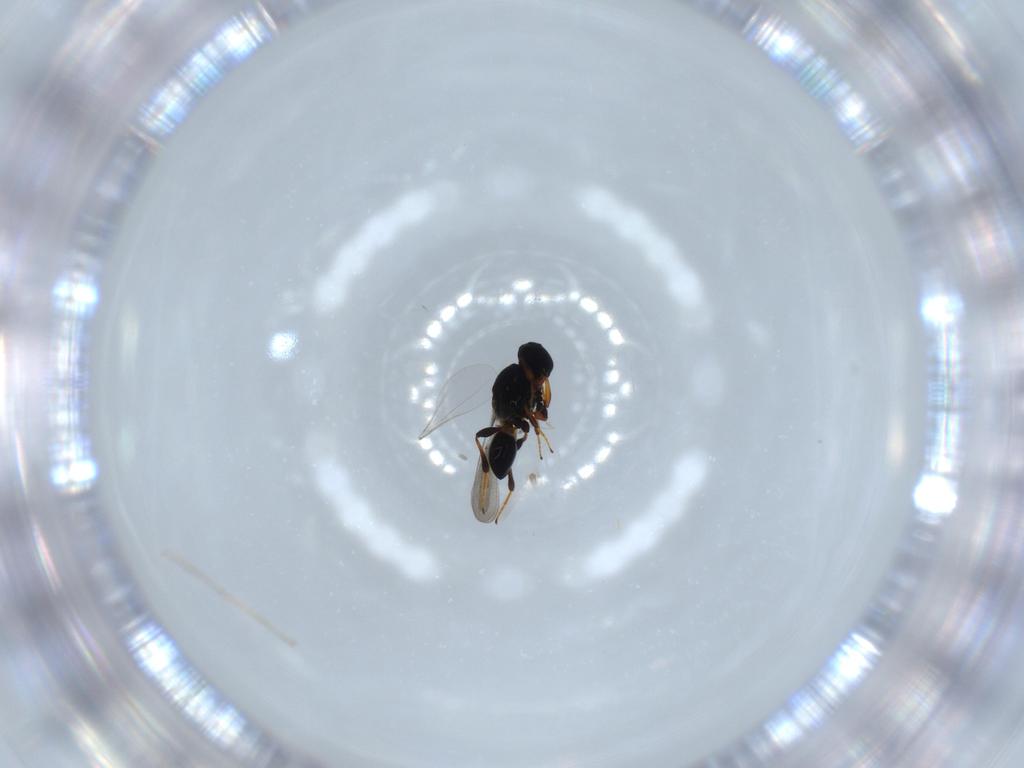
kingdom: Animalia
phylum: Arthropoda
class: Insecta
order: Hymenoptera
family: Platygastridae
